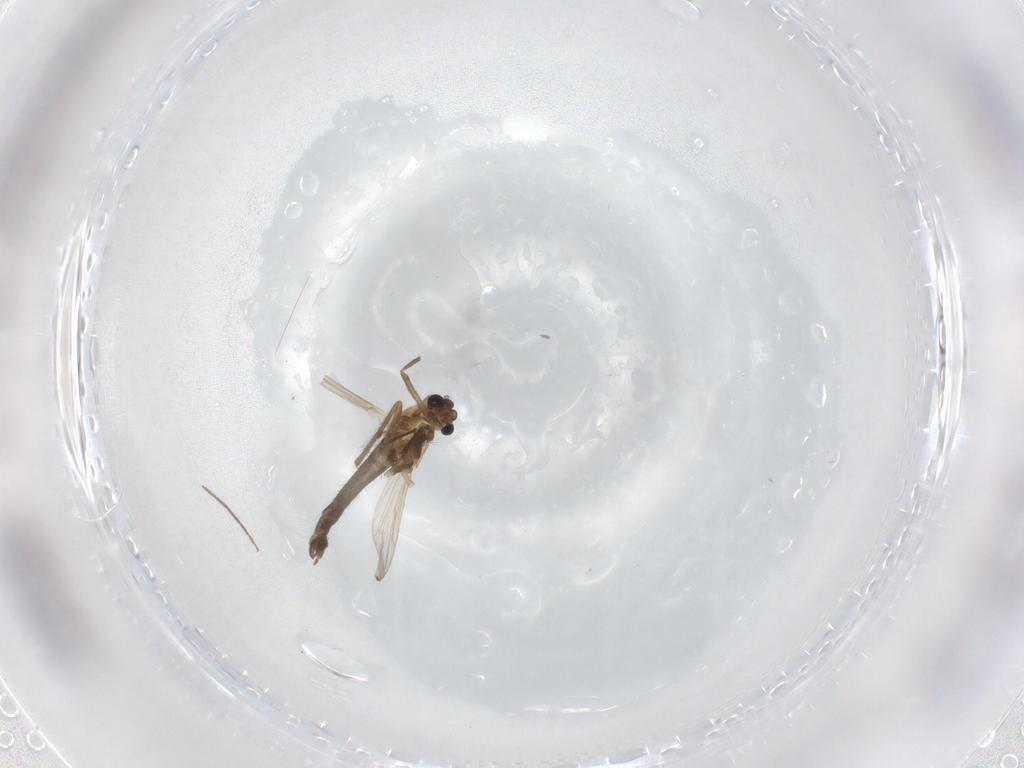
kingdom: Animalia
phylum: Arthropoda
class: Insecta
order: Diptera
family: Chironomidae
